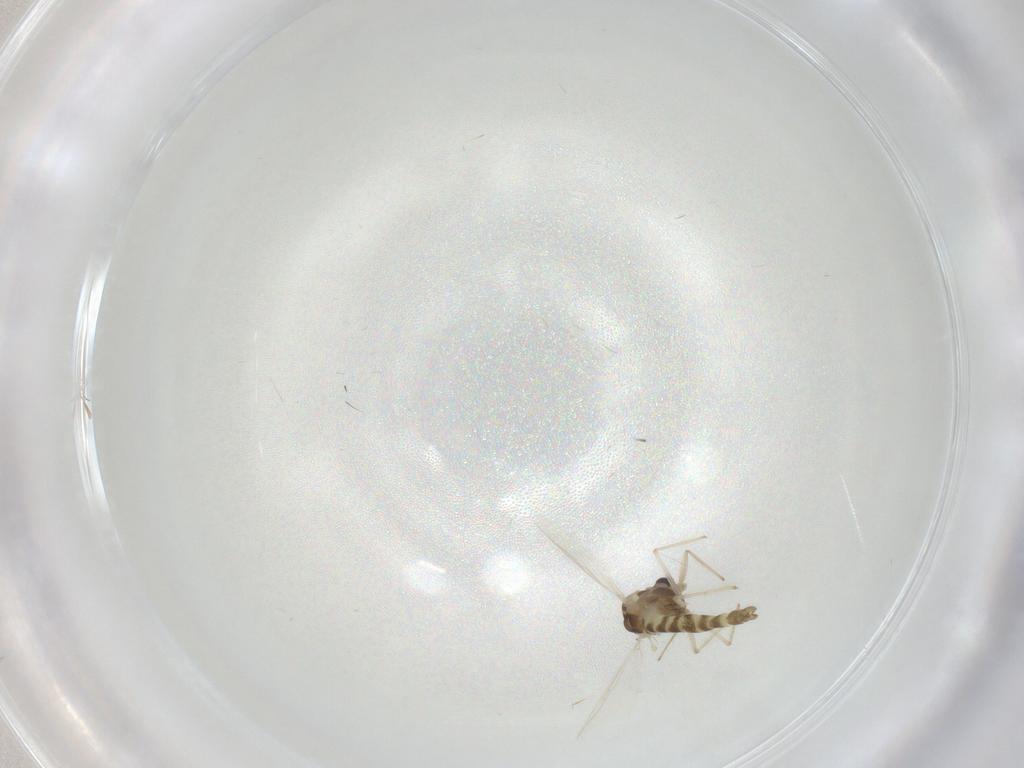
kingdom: Animalia
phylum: Arthropoda
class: Insecta
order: Diptera
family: Chironomidae
